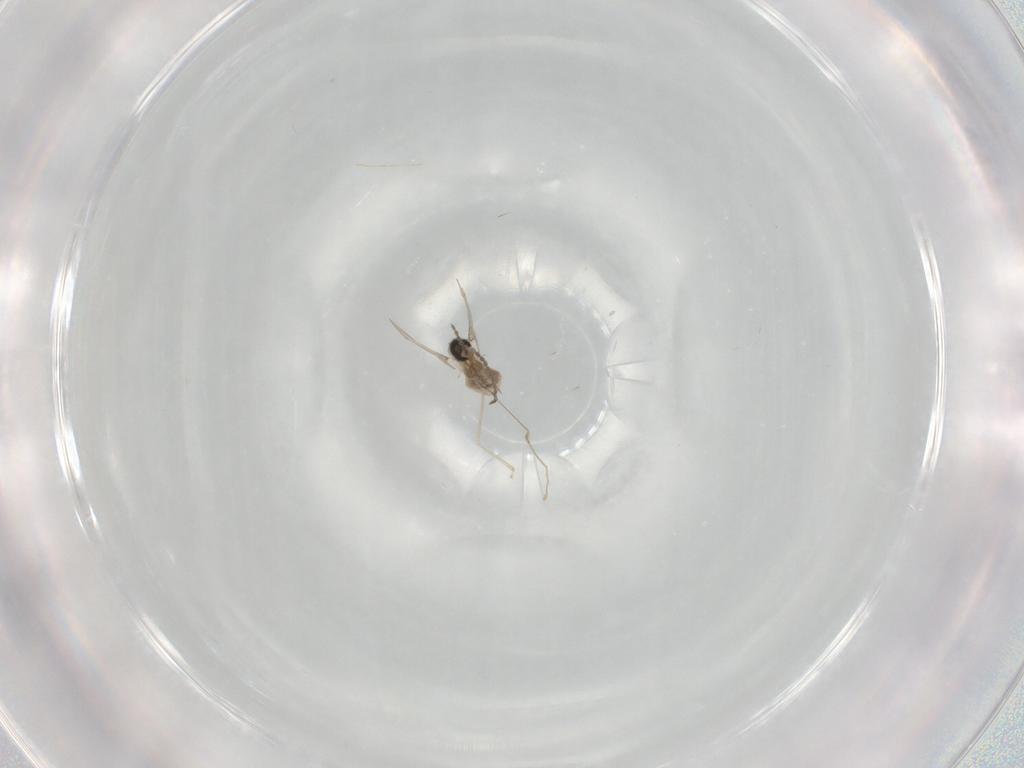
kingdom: Animalia
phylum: Arthropoda
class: Insecta
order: Diptera
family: Cecidomyiidae
